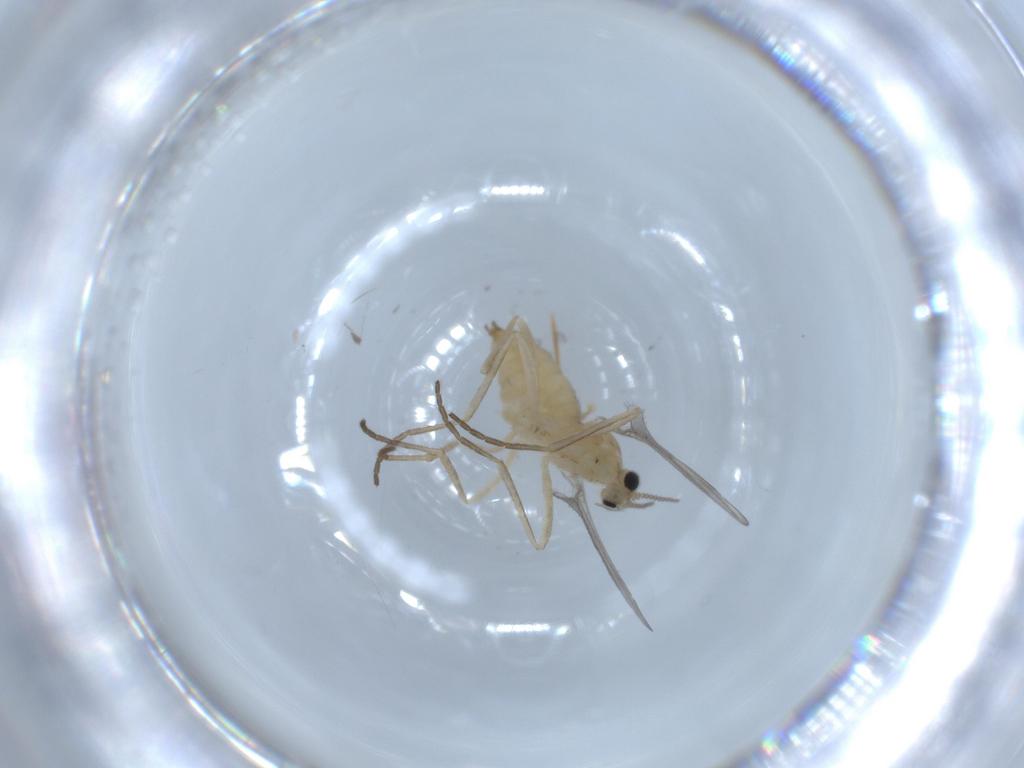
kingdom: Animalia
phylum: Arthropoda
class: Insecta
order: Diptera
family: Cecidomyiidae
